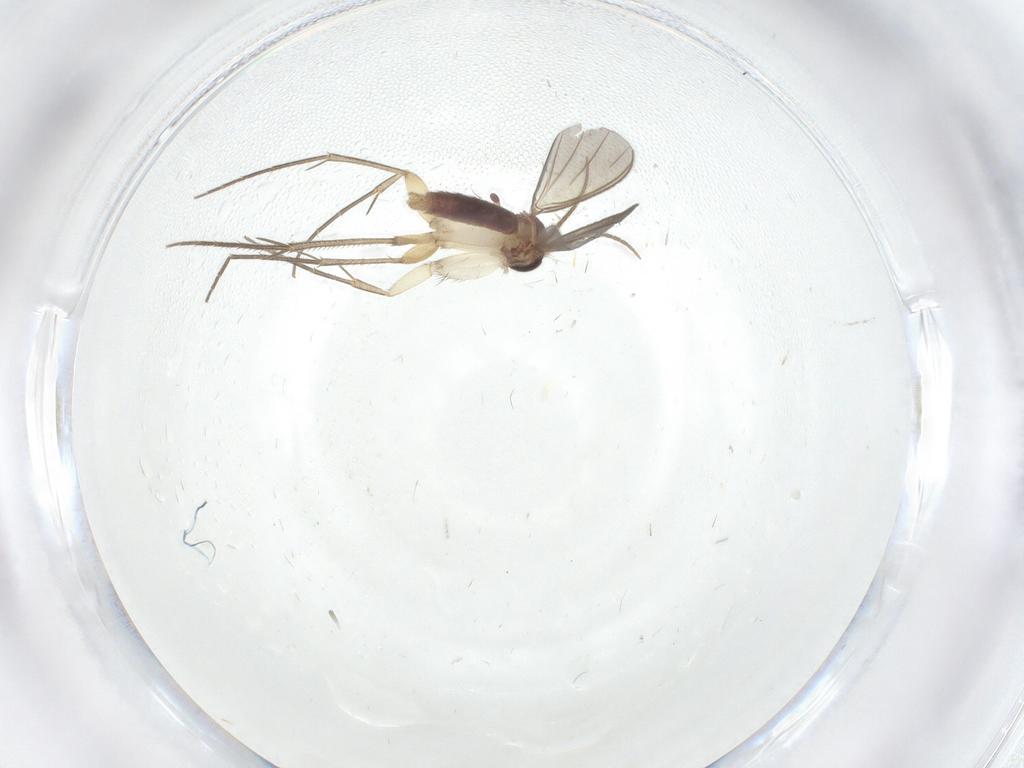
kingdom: Animalia
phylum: Arthropoda
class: Insecta
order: Diptera
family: Mycetophilidae
